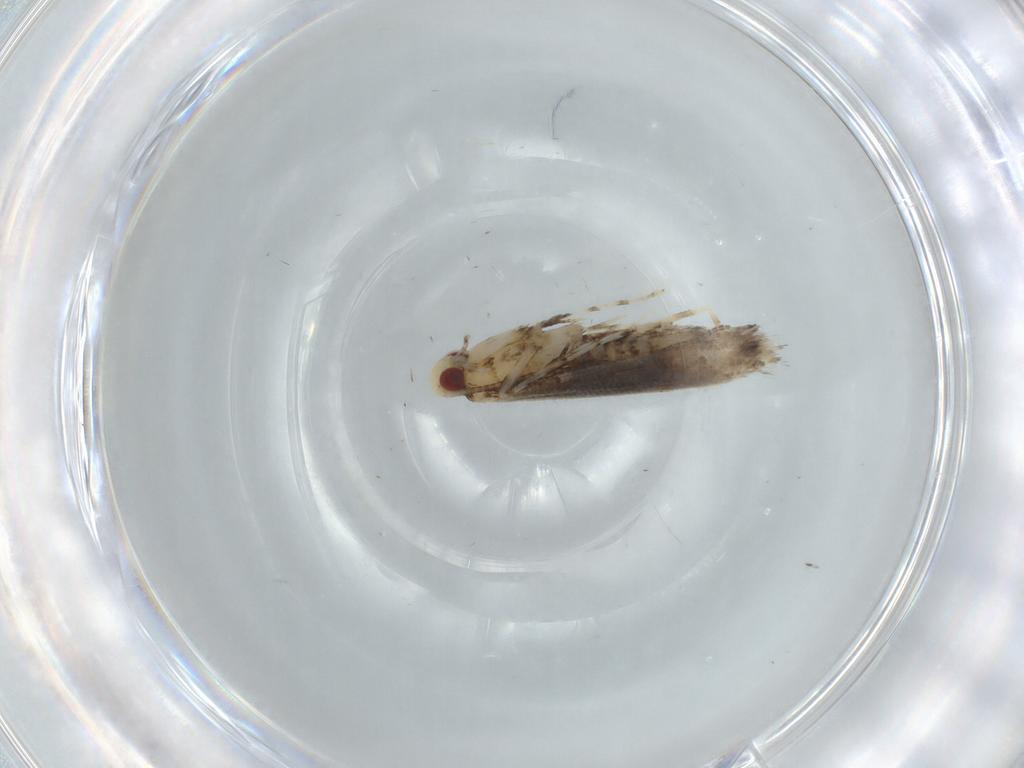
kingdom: Animalia
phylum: Arthropoda
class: Insecta
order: Lepidoptera
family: Gracillariidae
